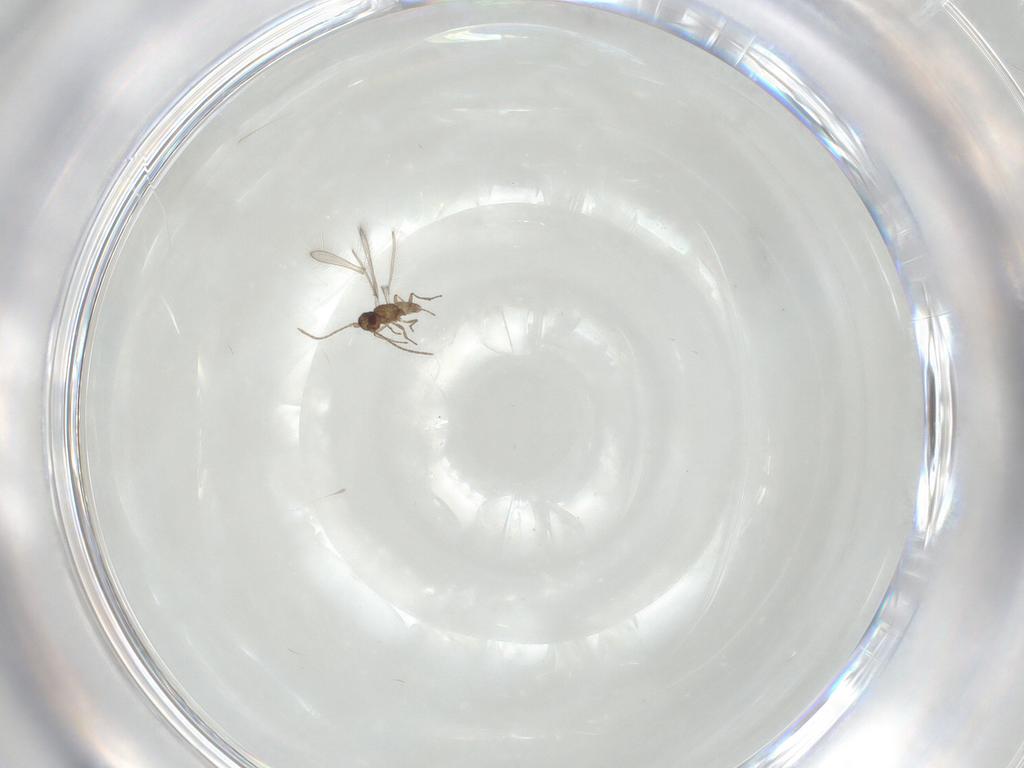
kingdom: Animalia
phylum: Arthropoda
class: Insecta
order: Hymenoptera
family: Mymaridae
